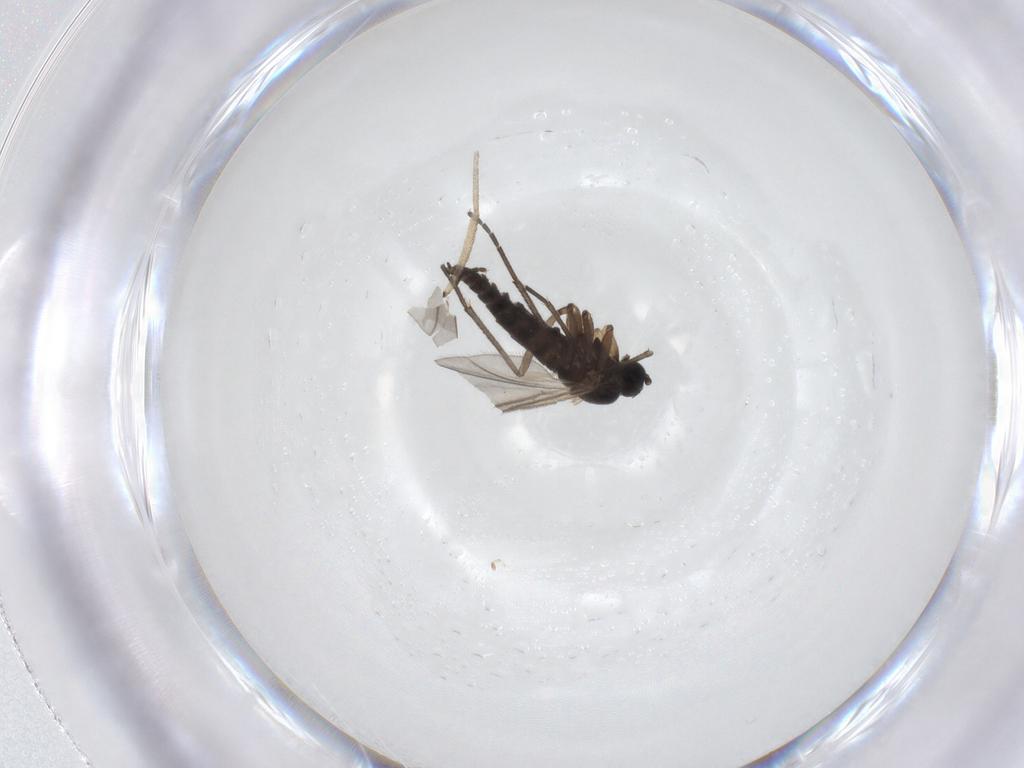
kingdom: Animalia
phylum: Arthropoda
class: Insecta
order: Diptera
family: Sciaridae
